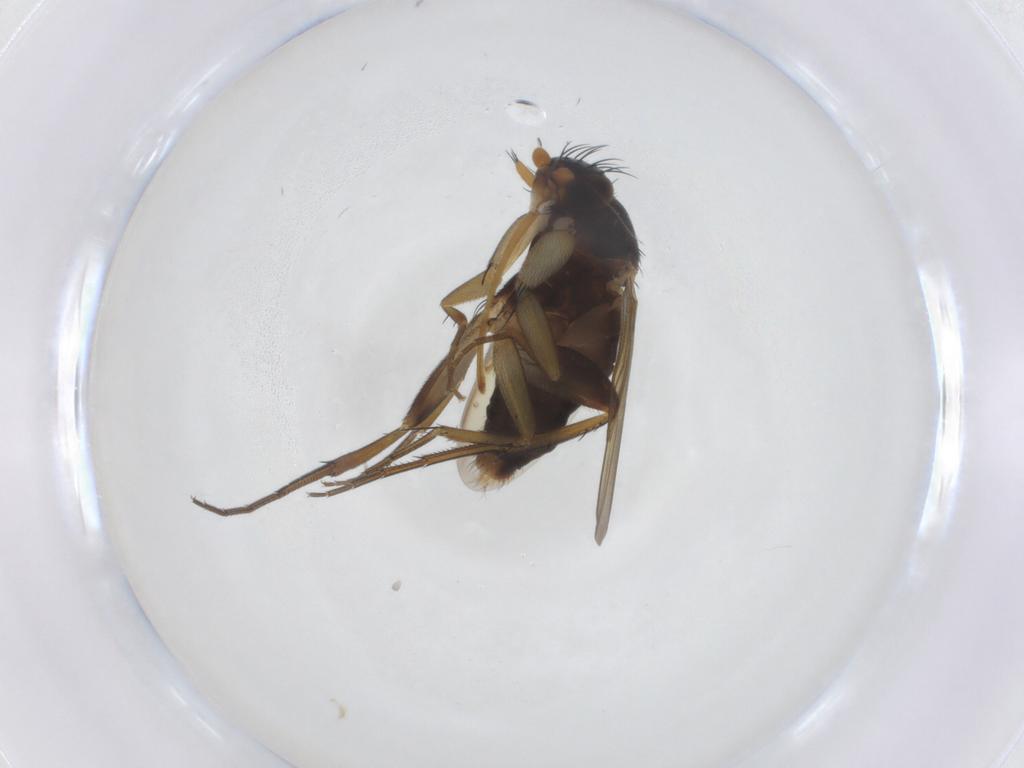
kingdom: Animalia
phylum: Arthropoda
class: Insecta
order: Diptera
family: Phoridae
